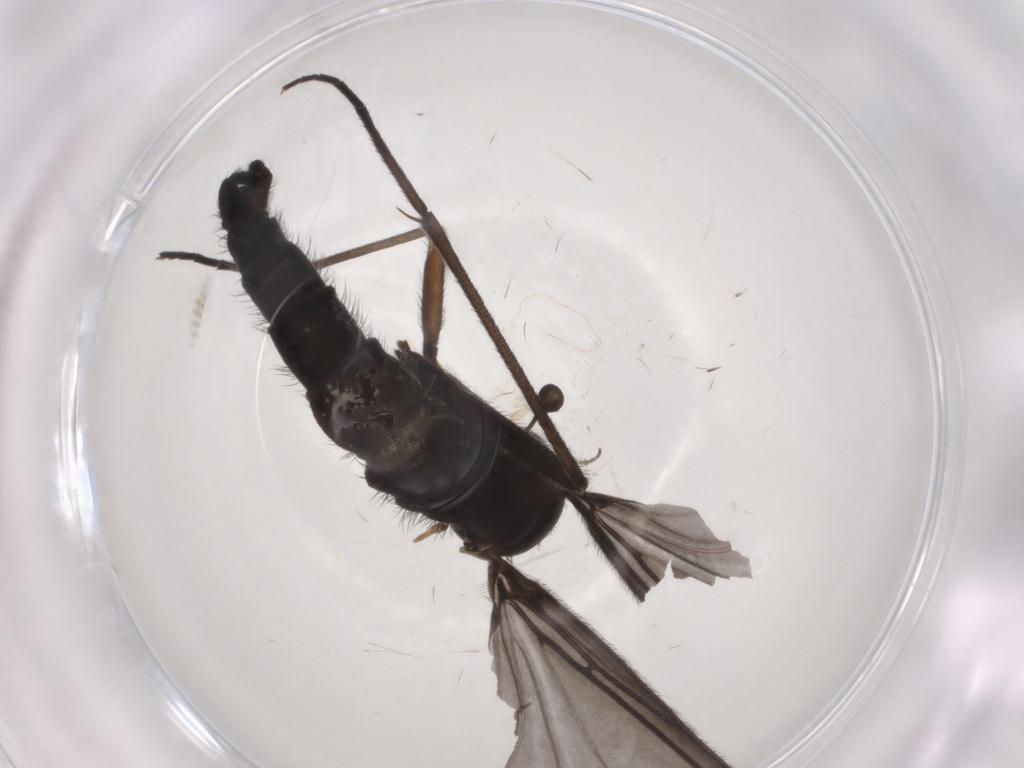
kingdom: Animalia
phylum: Arthropoda
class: Insecta
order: Diptera
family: Sciaridae
